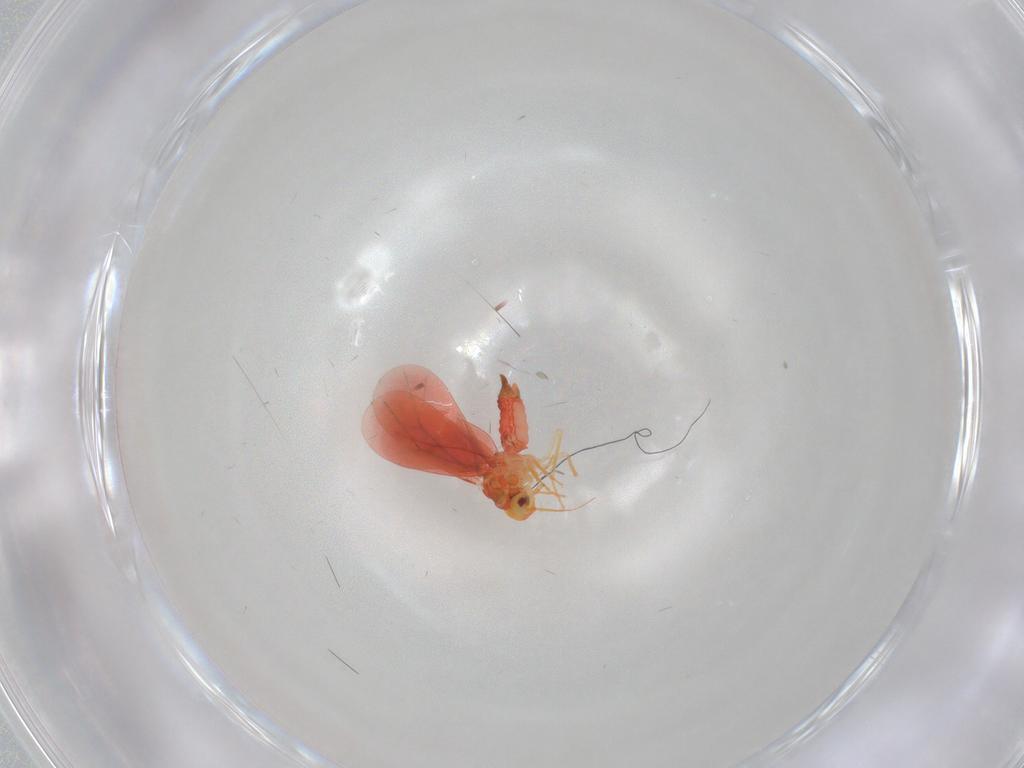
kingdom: Animalia
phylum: Arthropoda
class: Insecta
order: Hemiptera
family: Aleyrodidae
